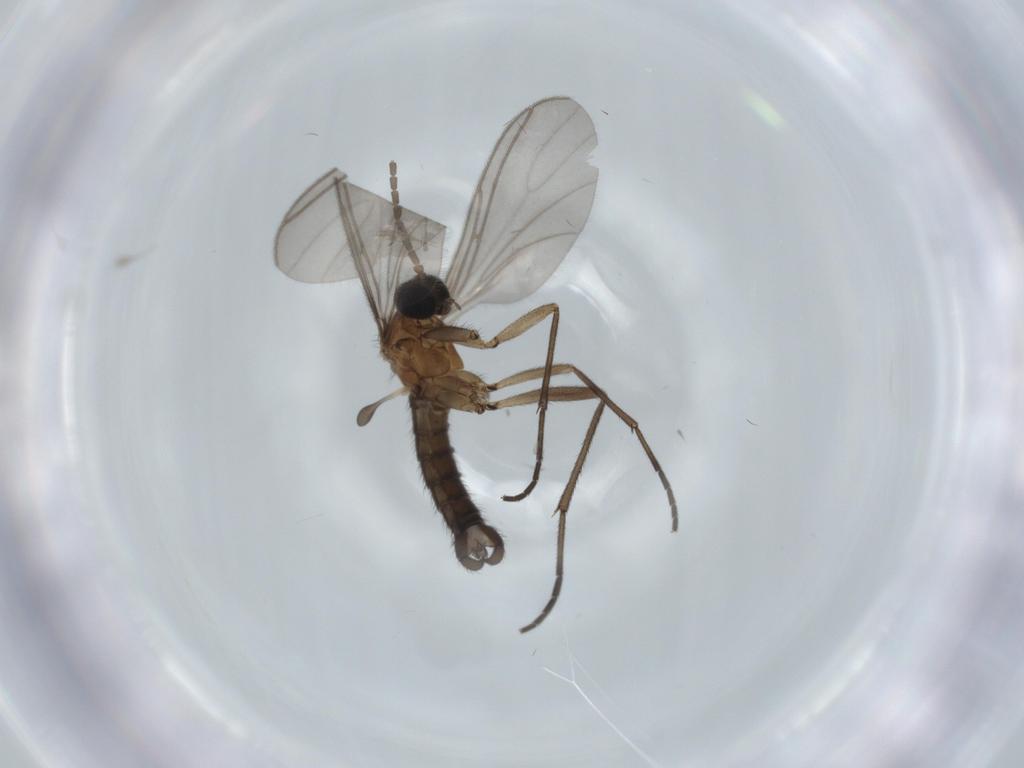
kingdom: Animalia
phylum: Arthropoda
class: Insecta
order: Diptera
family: Sciaridae
